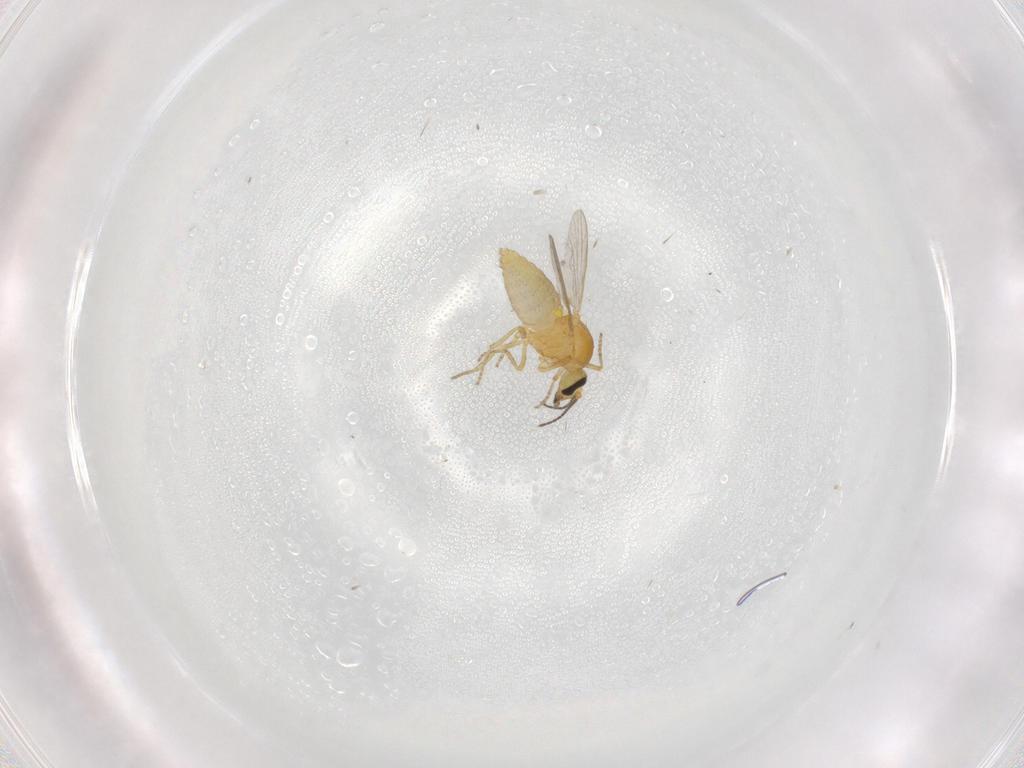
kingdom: Animalia
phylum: Arthropoda
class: Insecta
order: Diptera
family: Ceratopogonidae
